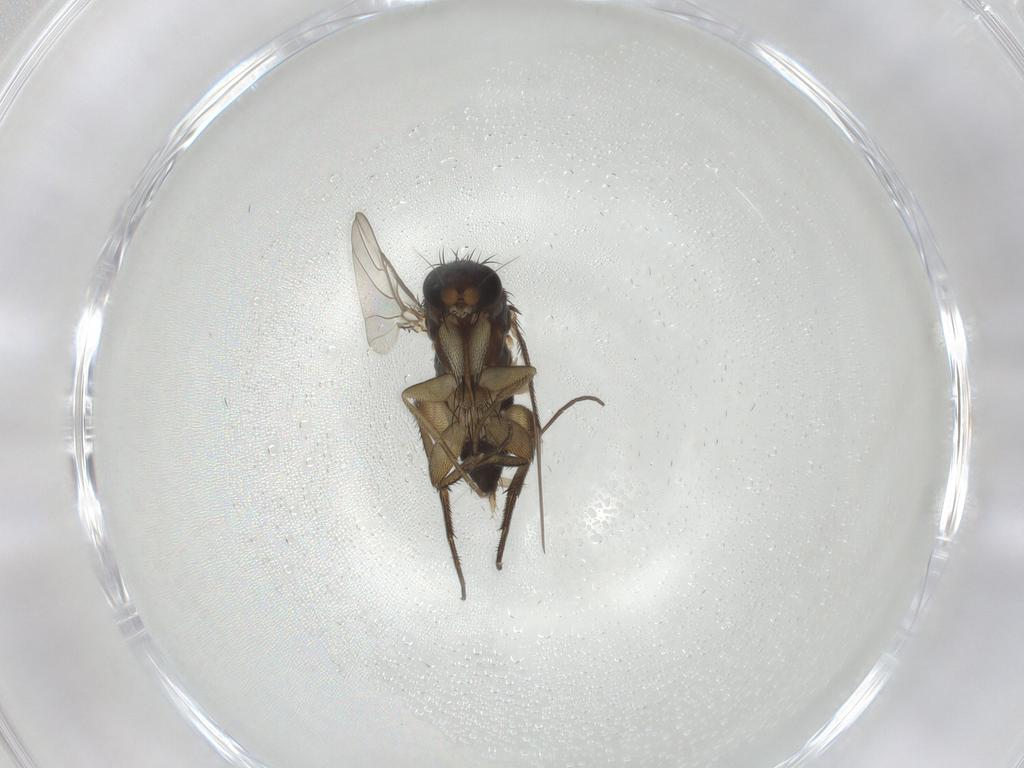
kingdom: Animalia
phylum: Arthropoda
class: Insecta
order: Diptera
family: Phoridae
